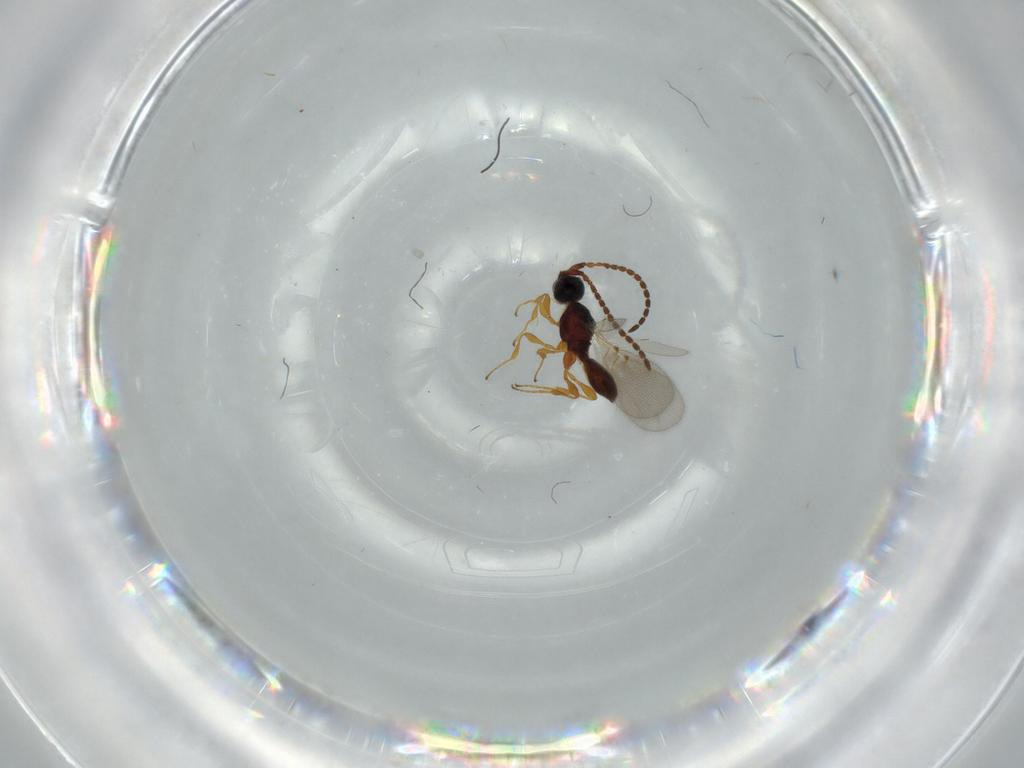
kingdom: Animalia
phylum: Arthropoda
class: Insecta
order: Hymenoptera
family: Diapriidae
